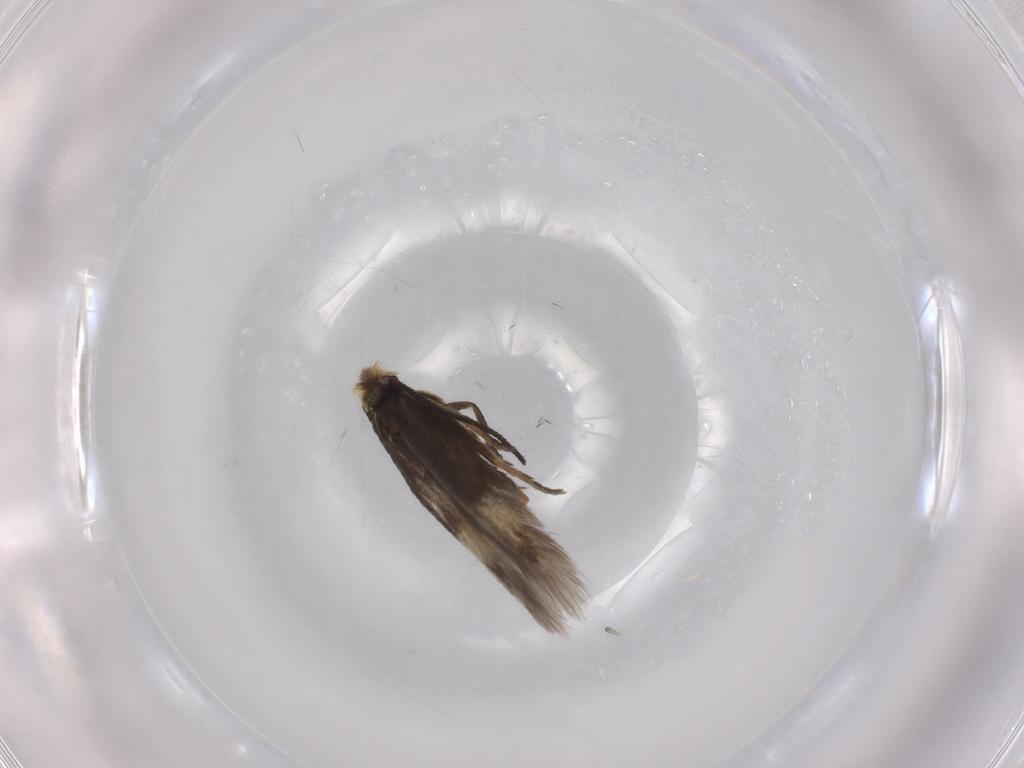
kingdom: Animalia
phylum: Arthropoda
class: Insecta
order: Lepidoptera
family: Nepticulidae
